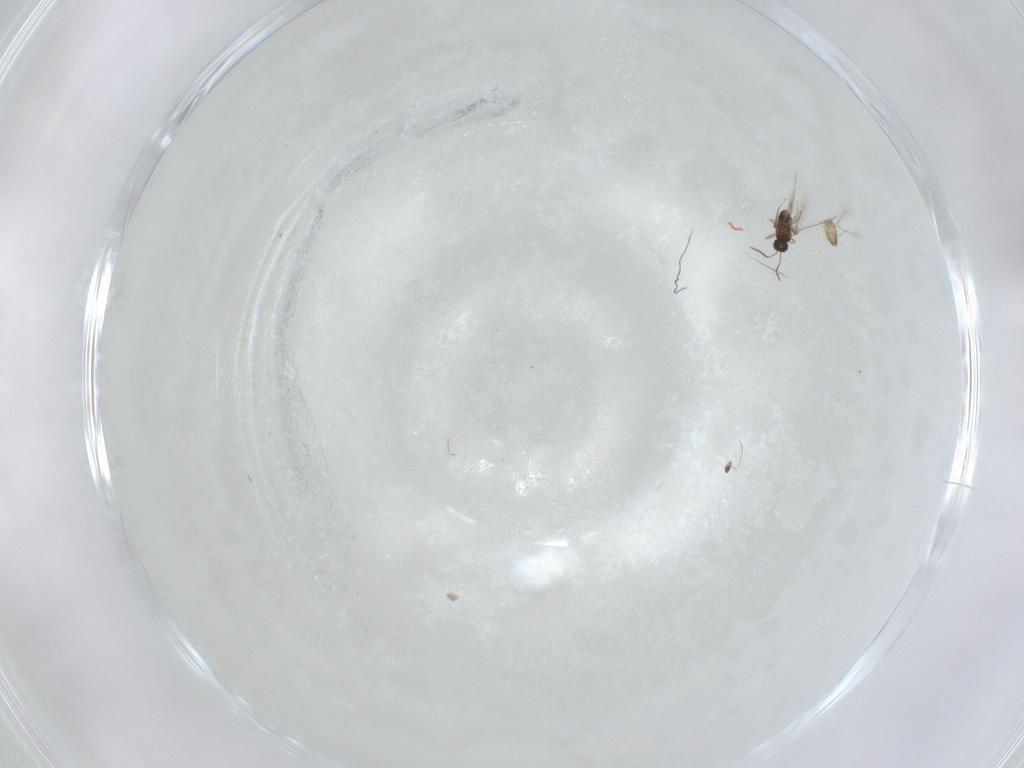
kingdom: Animalia
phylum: Arthropoda
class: Insecta
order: Hymenoptera
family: Mymaridae
